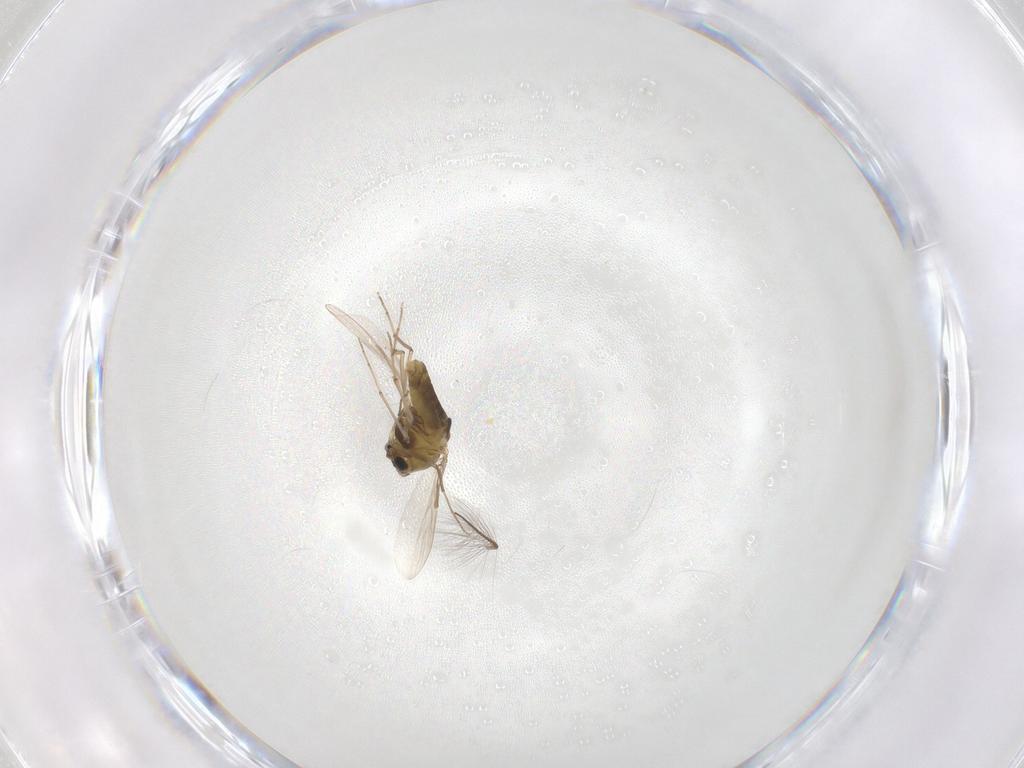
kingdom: Animalia
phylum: Arthropoda
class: Insecta
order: Diptera
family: Chironomidae
